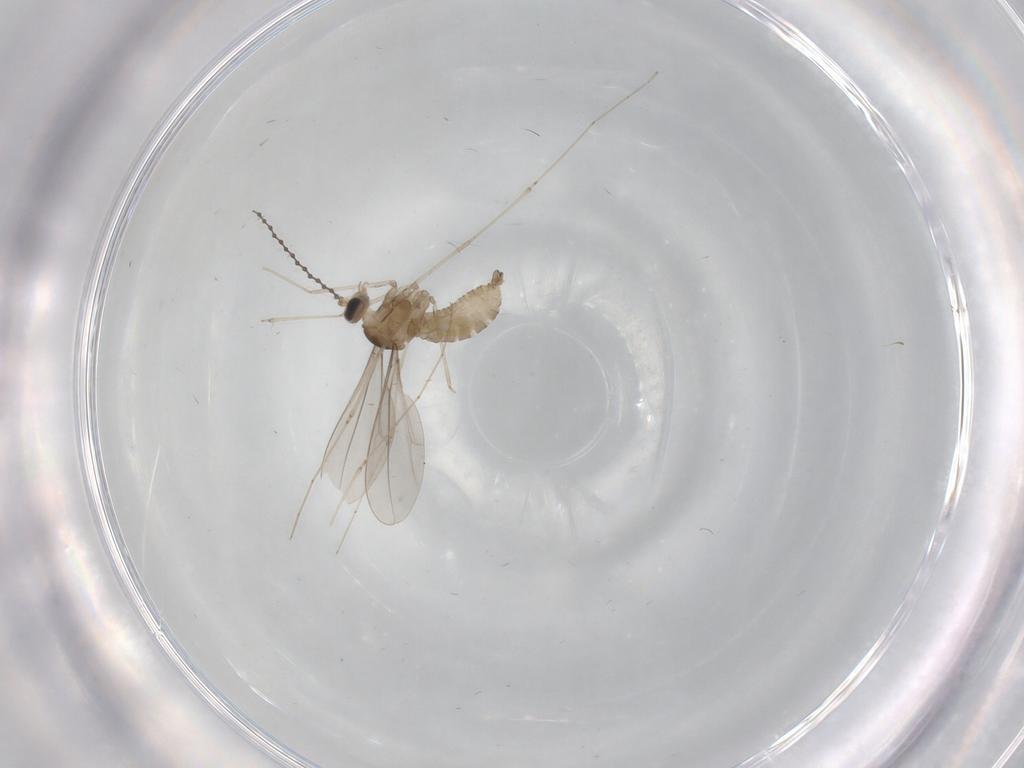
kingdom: Animalia
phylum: Arthropoda
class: Insecta
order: Diptera
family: Cecidomyiidae
